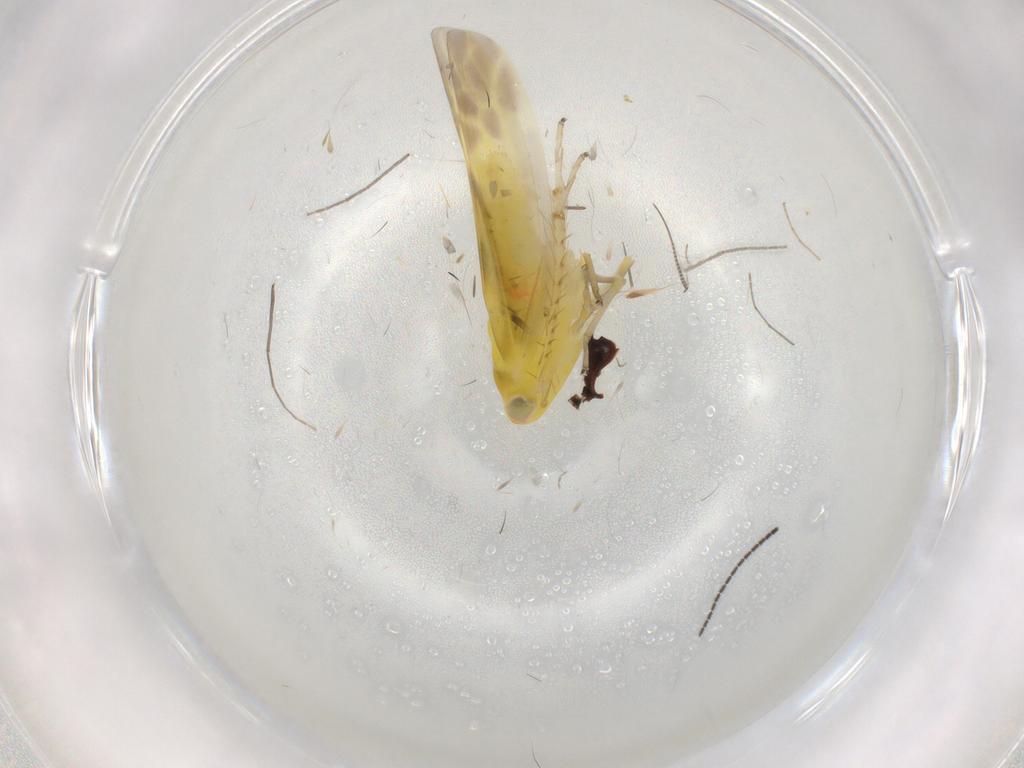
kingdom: Animalia
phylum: Arthropoda
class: Insecta
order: Hemiptera
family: Cicadellidae
